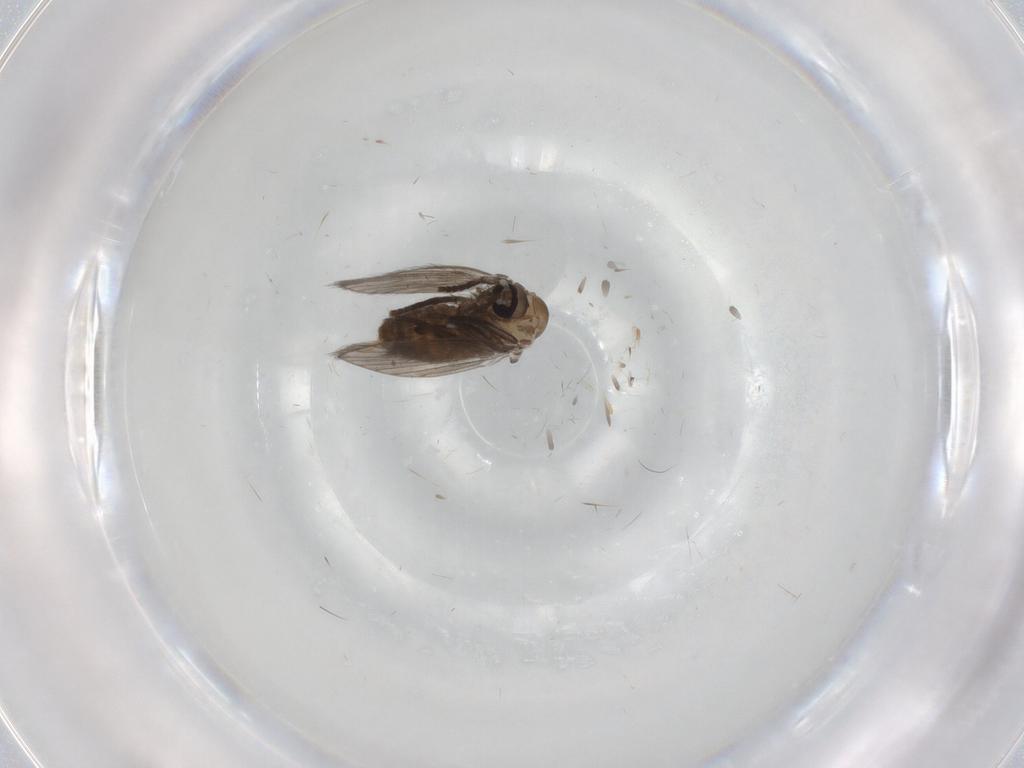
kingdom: Animalia
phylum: Arthropoda
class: Insecta
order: Diptera
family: Psychodidae
